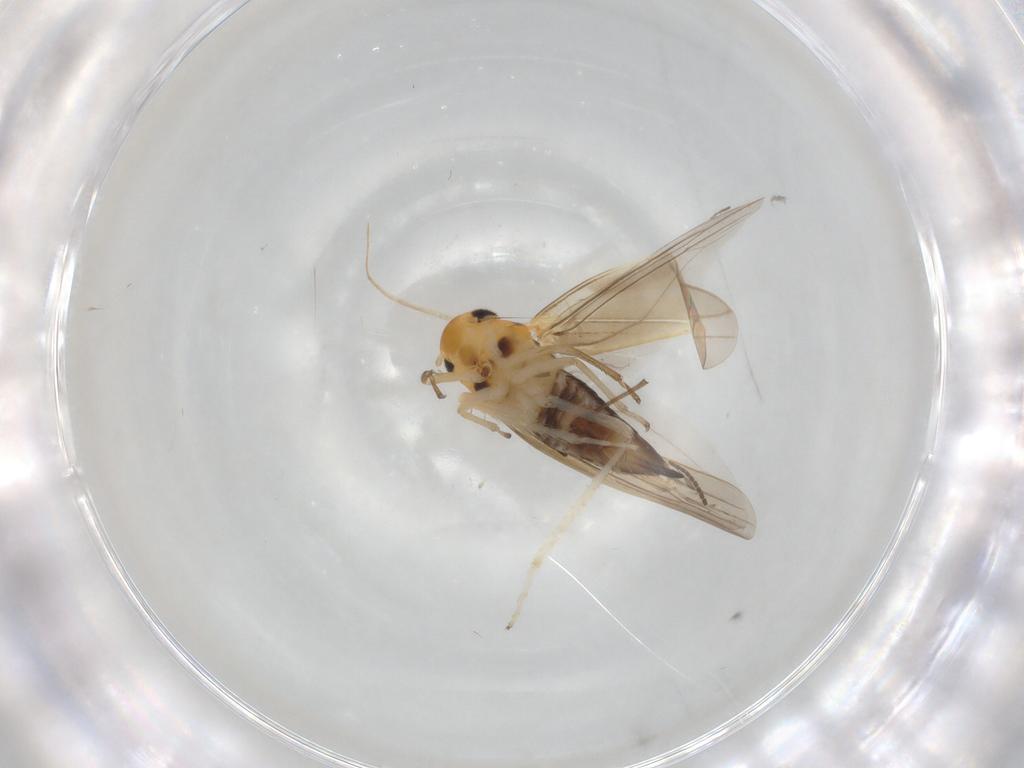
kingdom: Animalia
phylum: Arthropoda
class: Insecta
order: Hemiptera
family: Cicadellidae
